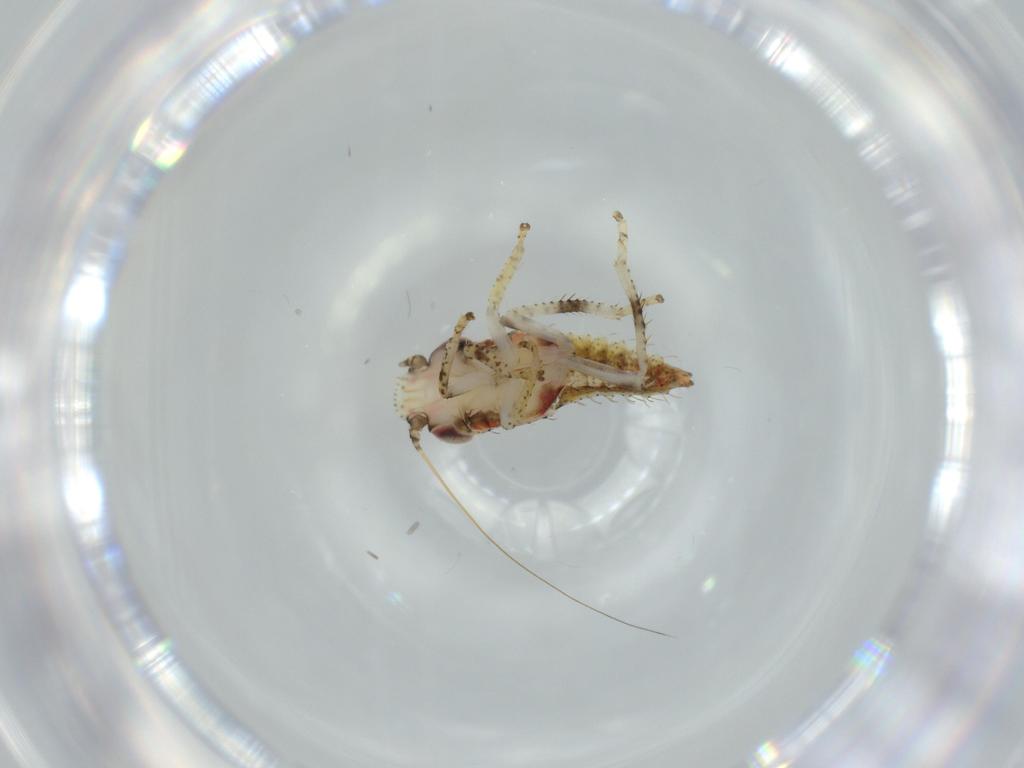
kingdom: Animalia
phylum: Arthropoda
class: Insecta
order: Hemiptera
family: Cicadellidae
